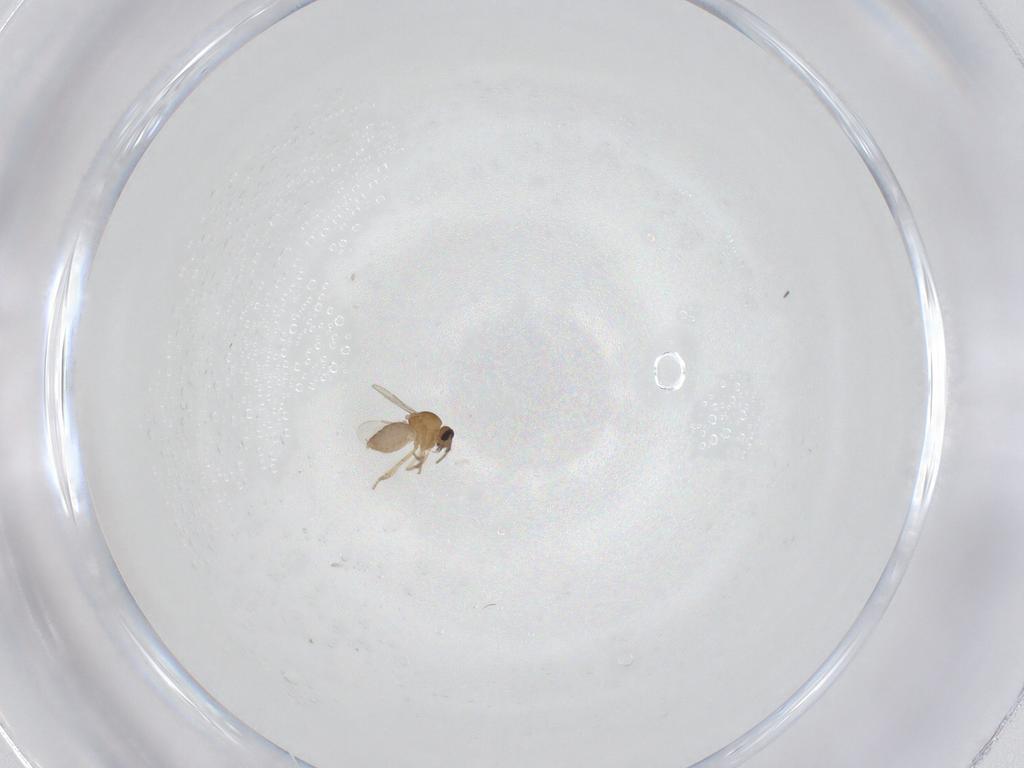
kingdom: Animalia
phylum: Arthropoda
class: Insecta
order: Diptera
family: Ceratopogonidae
